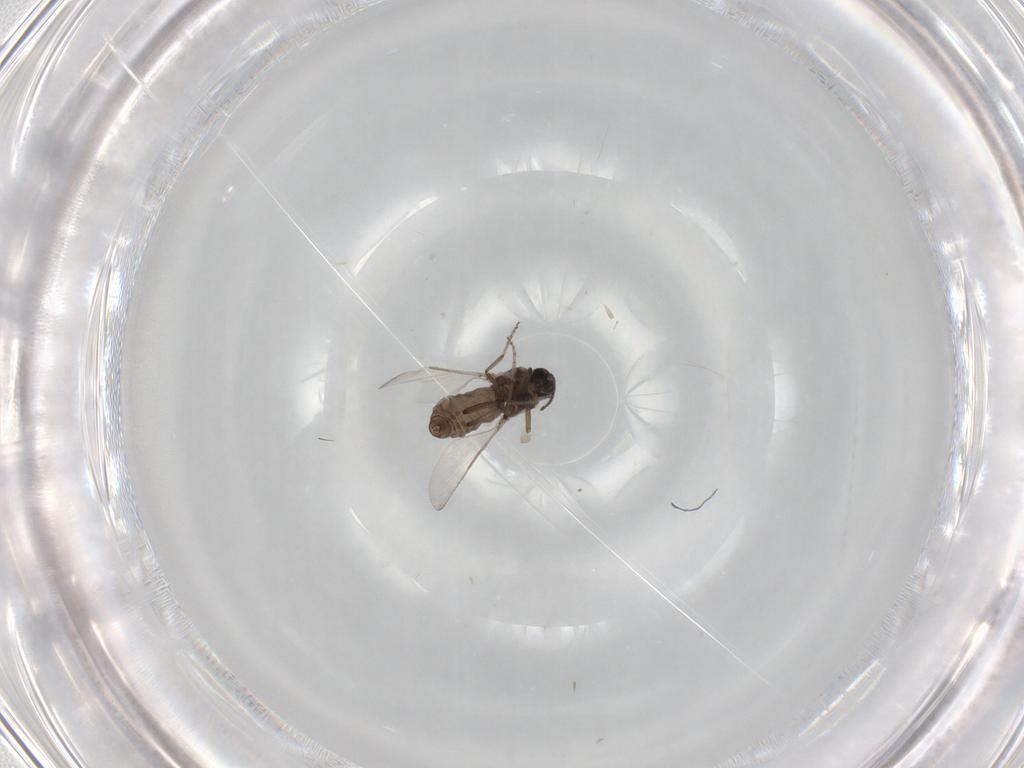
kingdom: Animalia
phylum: Arthropoda
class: Insecta
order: Diptera
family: Ceratopogonidae
